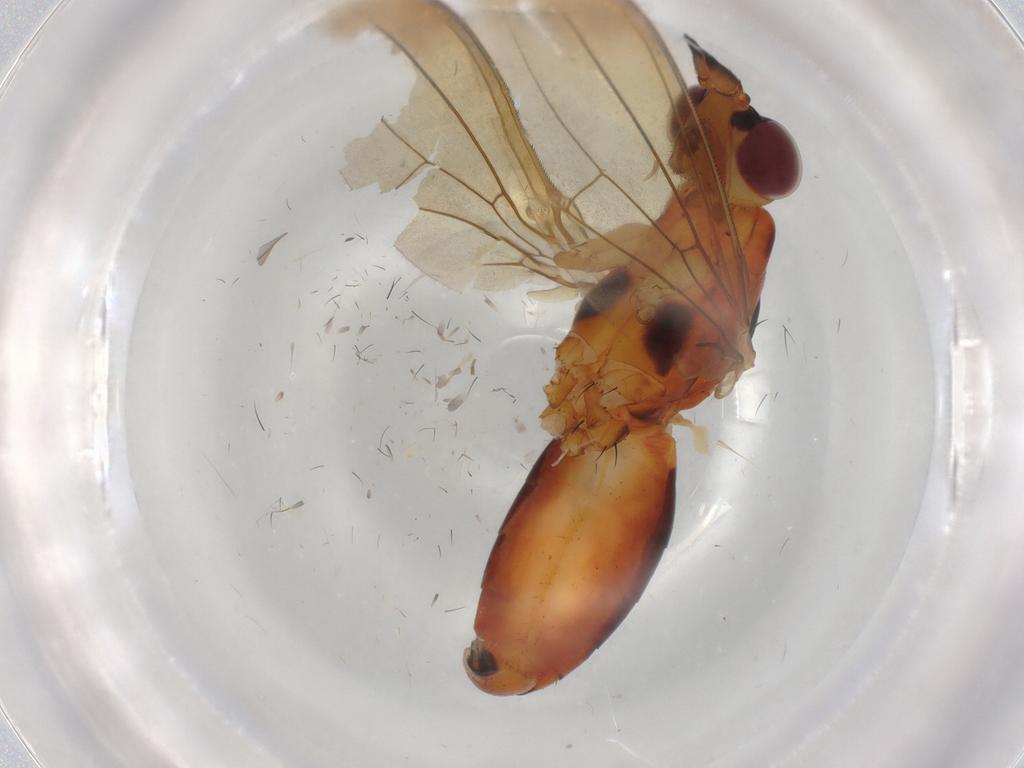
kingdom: Animalia
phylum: Arthropoda
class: Insecta
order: Diptera
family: Neriidae
